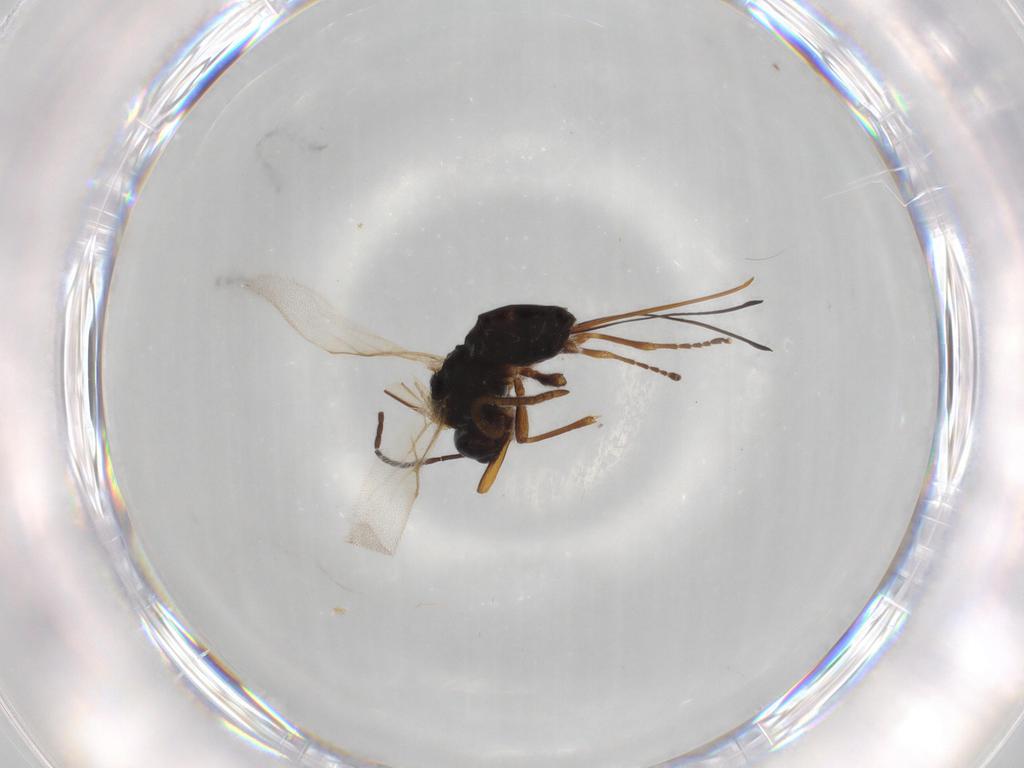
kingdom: Animalia
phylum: Arthropoda
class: Insecta
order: Hymenoptera
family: Braconidae
